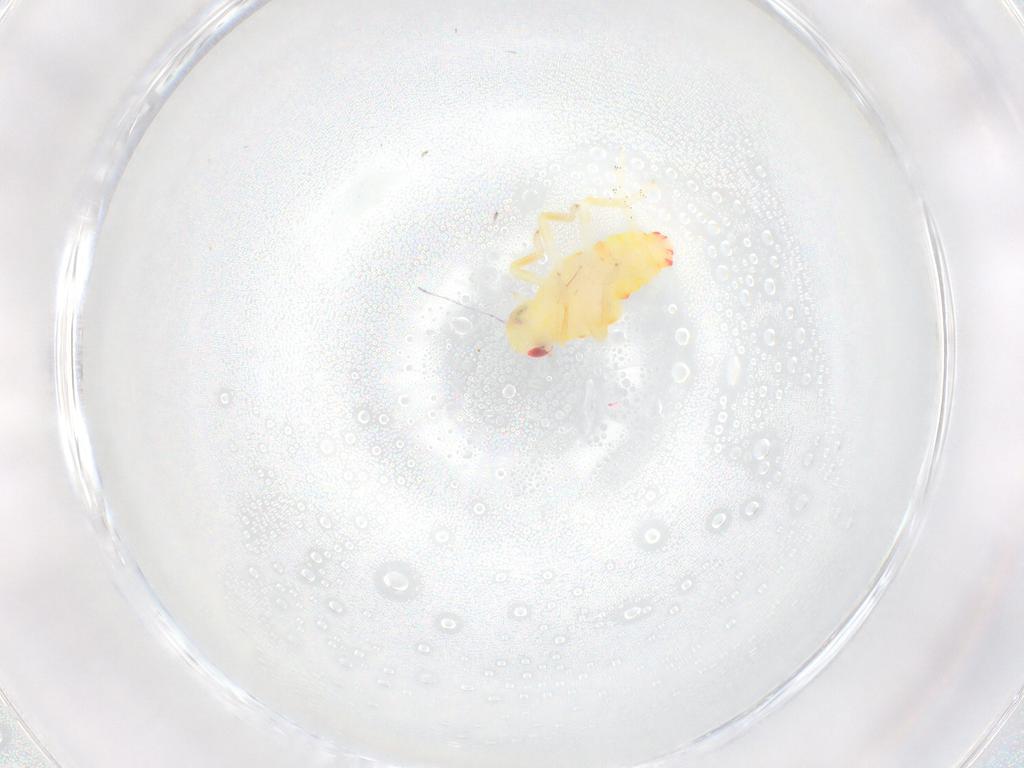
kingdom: Animalia
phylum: Arthropoda
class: Insecta
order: Hemiptera
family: Tropiduchidae
